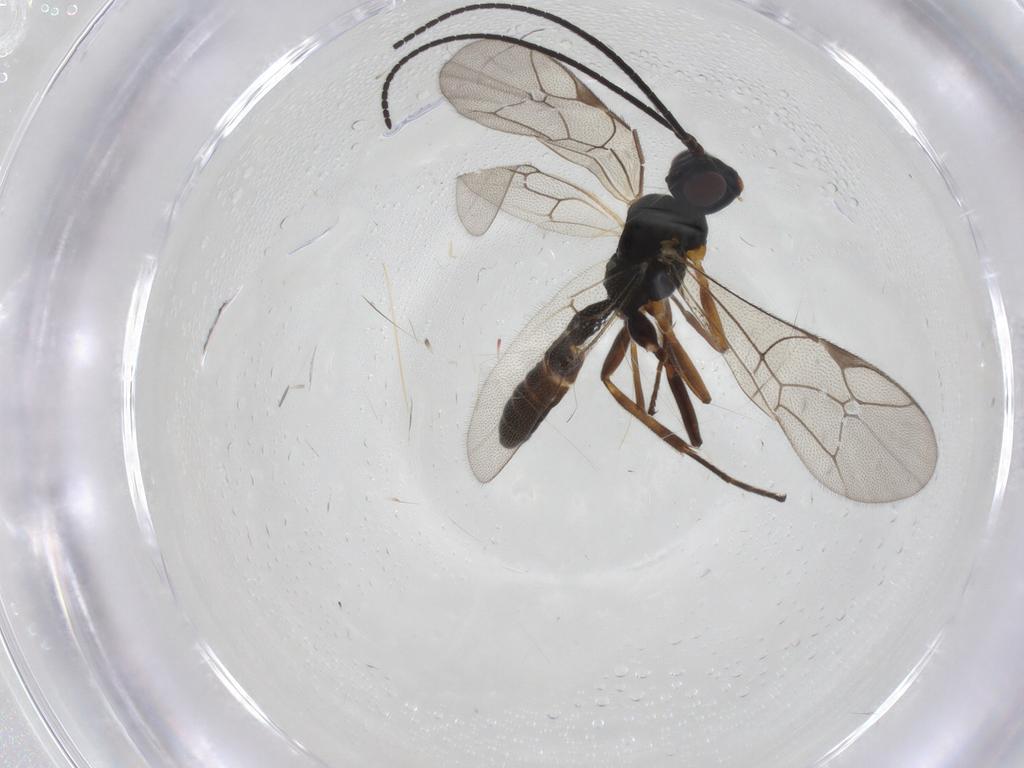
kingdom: Animalia
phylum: Arthropoda
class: Insecta
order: Hymenoptera
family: Ichneumonidae
